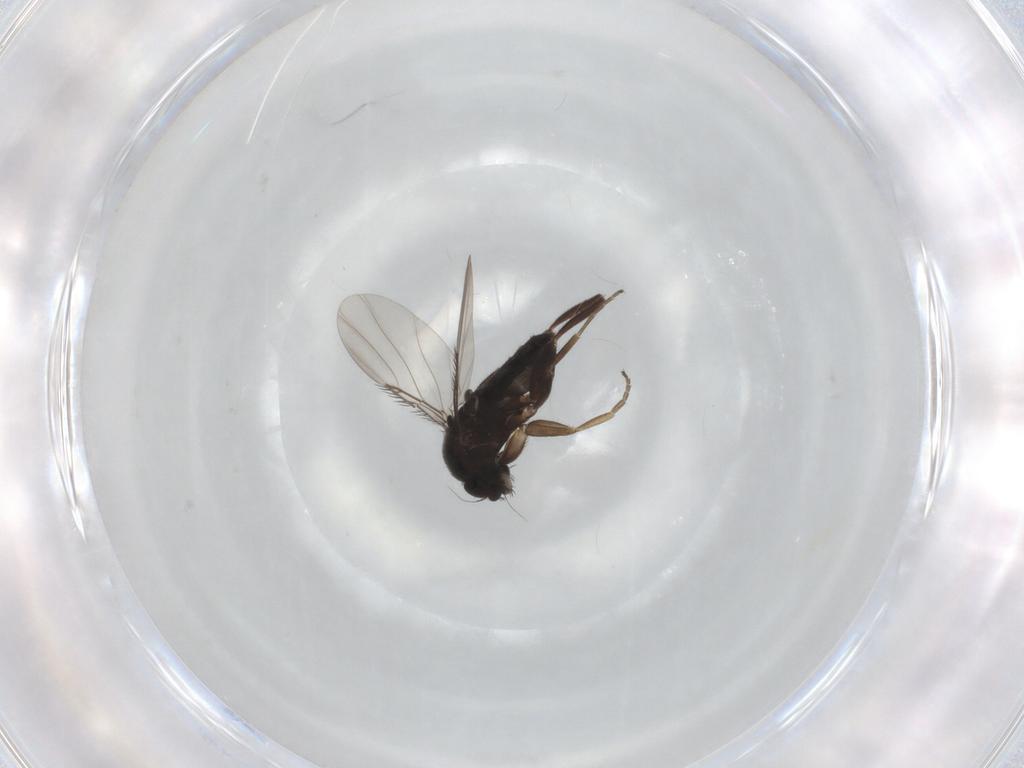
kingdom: Animalia
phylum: Arthropoda
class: Insecta
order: Diptera
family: Phoridae
